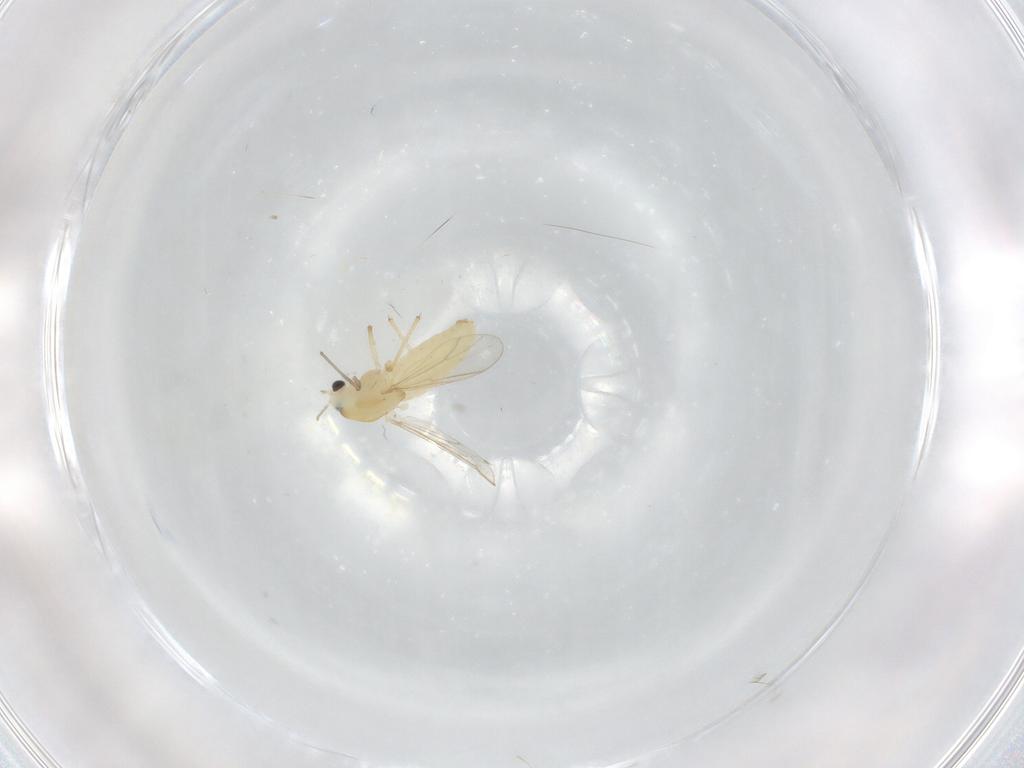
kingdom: Animalia
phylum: Arthropoda
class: Insecta
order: Diptera
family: Chironomidae
